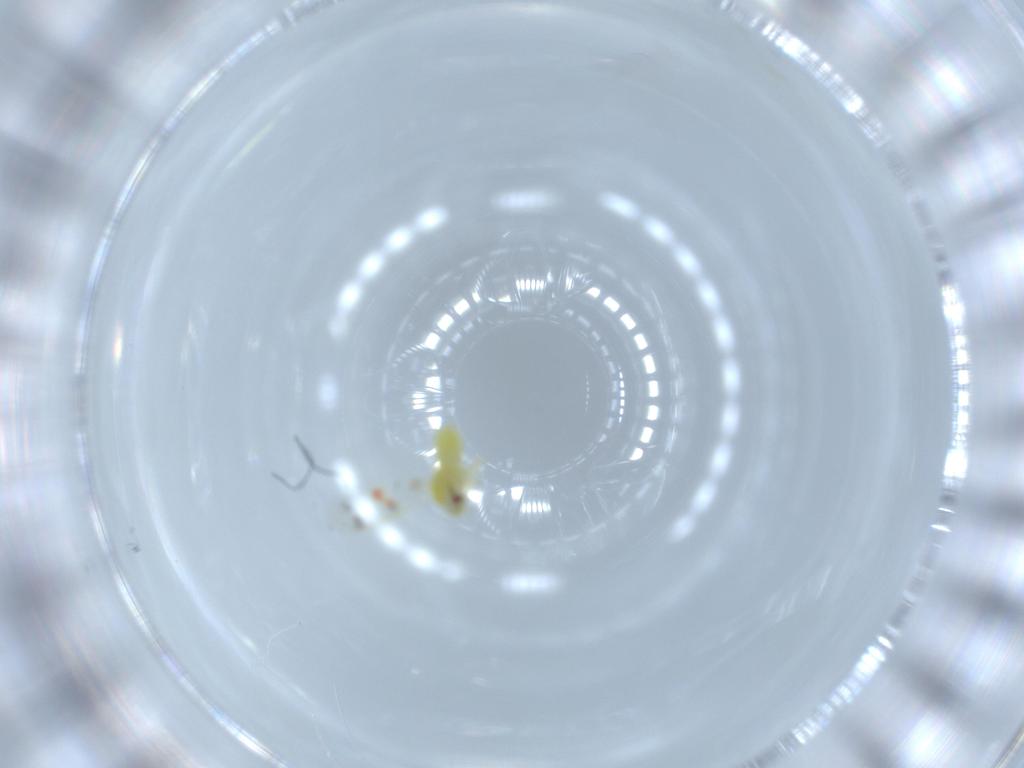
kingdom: Animalia
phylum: Arthropoda
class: Insecta
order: Hemiptera
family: Aleyrodidae
